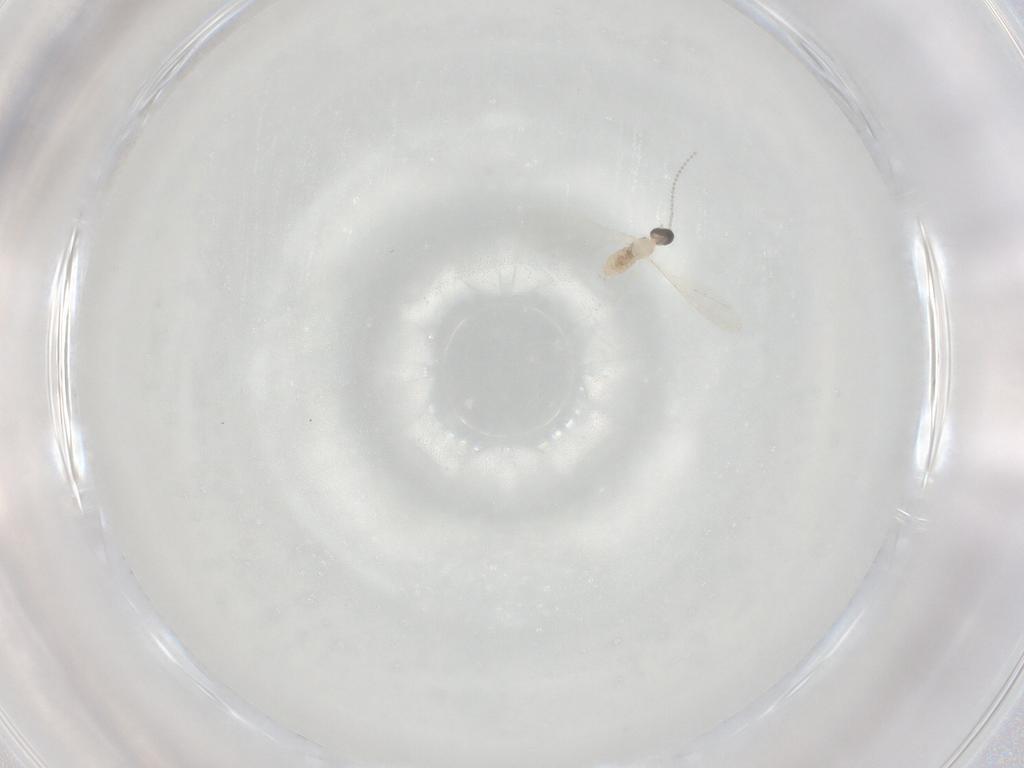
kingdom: Animalia
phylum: Arthropoda
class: Insecta
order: Diptera
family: Cecidomyiidae
